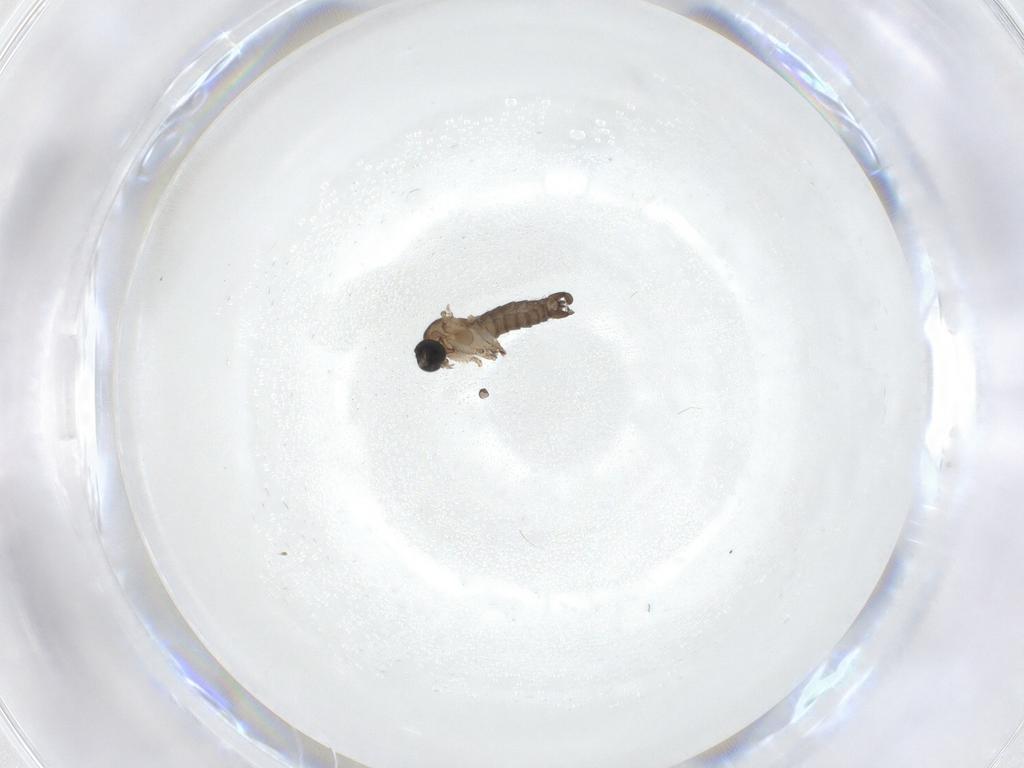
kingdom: Animalia
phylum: Arthropoda
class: Insecta
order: Diptera
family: Sciaridae
